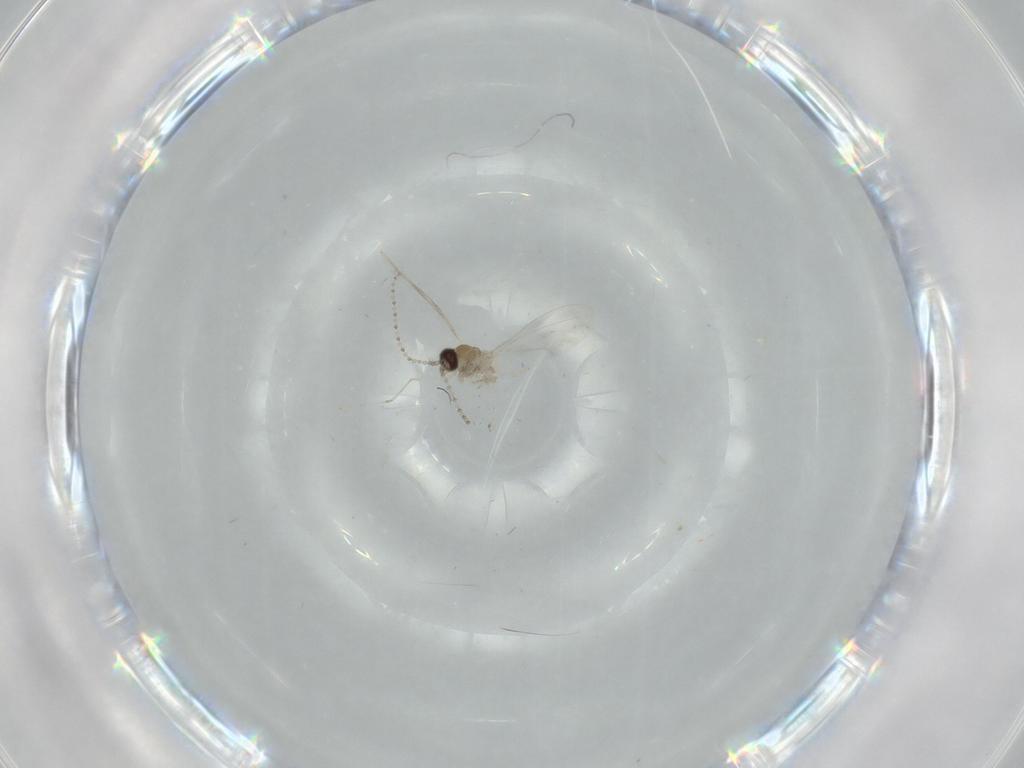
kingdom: Animalia
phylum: Arthropoda
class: Insecta
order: Diptera
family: Cecidomyiidae
